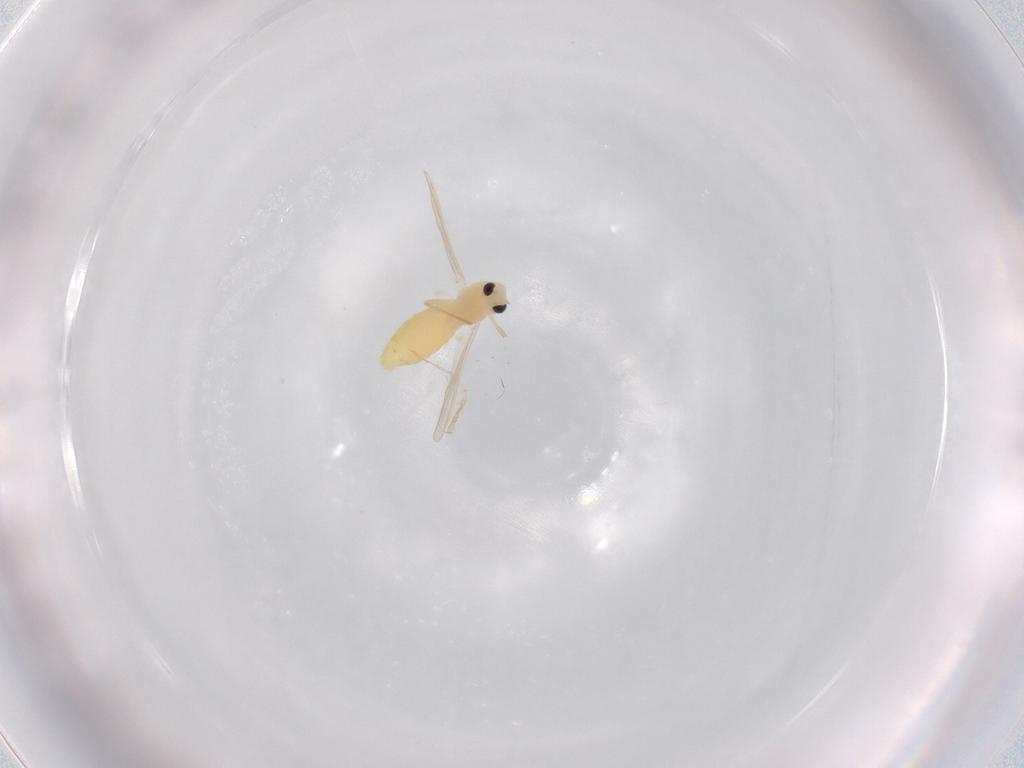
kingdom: Animalia
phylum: Arthropoda
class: Insecta
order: Diptera
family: Chironomidae
